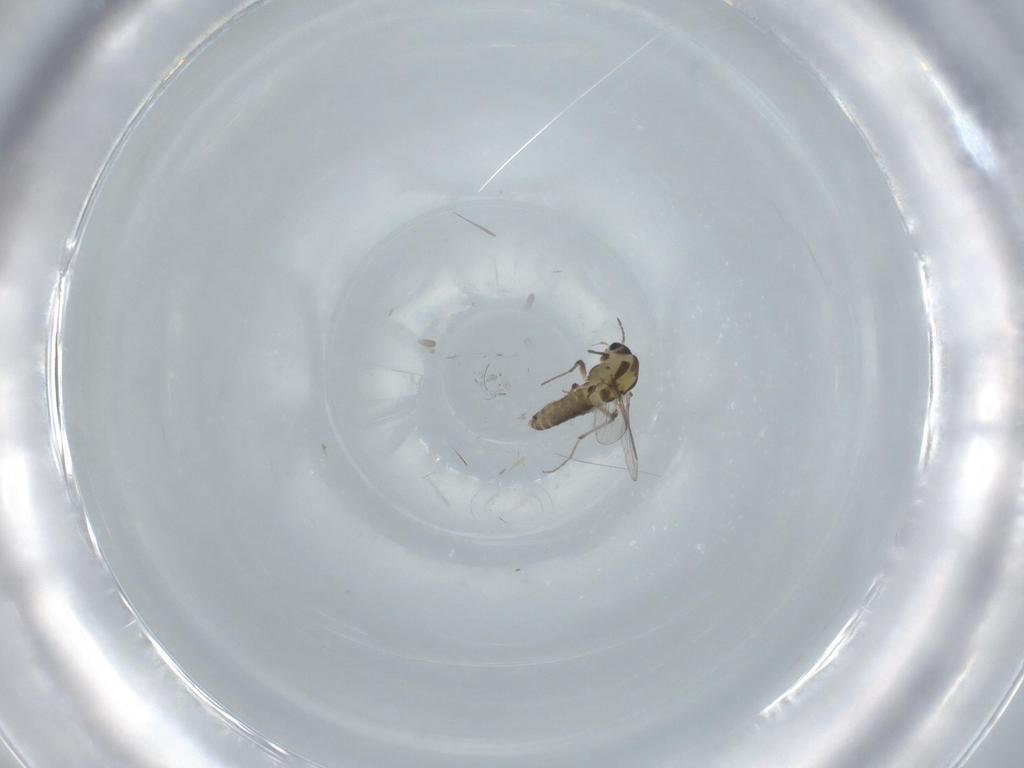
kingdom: Animalia
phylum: Arthropoda
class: Insecta
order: Diptera
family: Chironomidae
